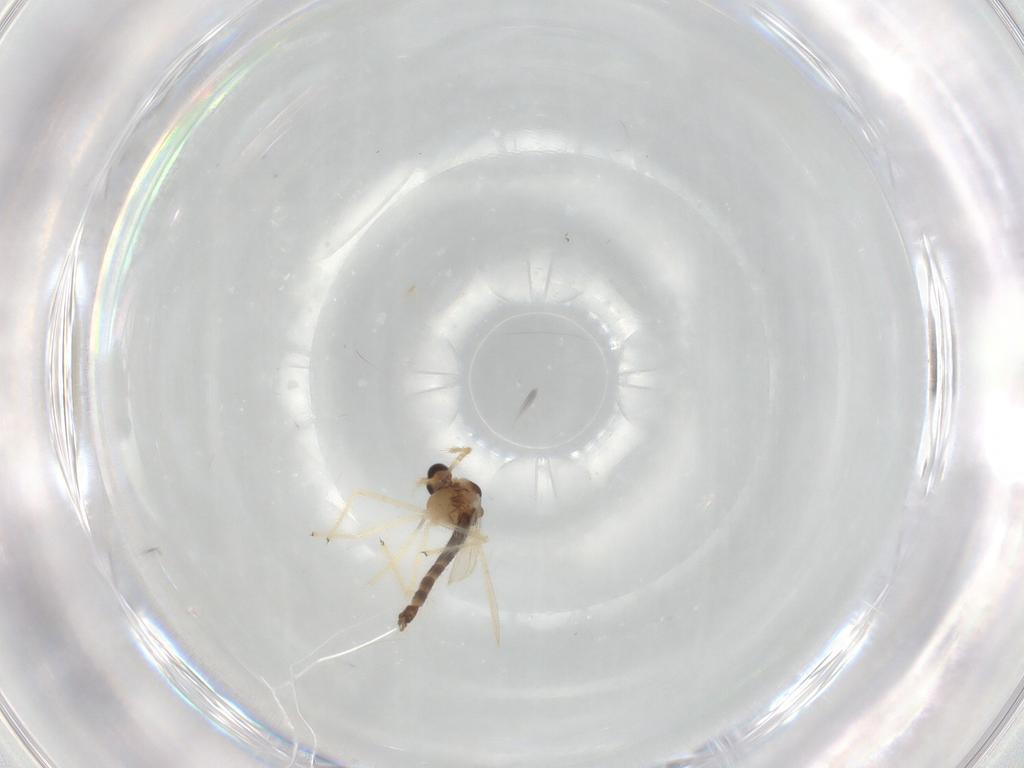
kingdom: Animalia
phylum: Arthropoda
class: Insecta
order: Diptera
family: Chironomidae
